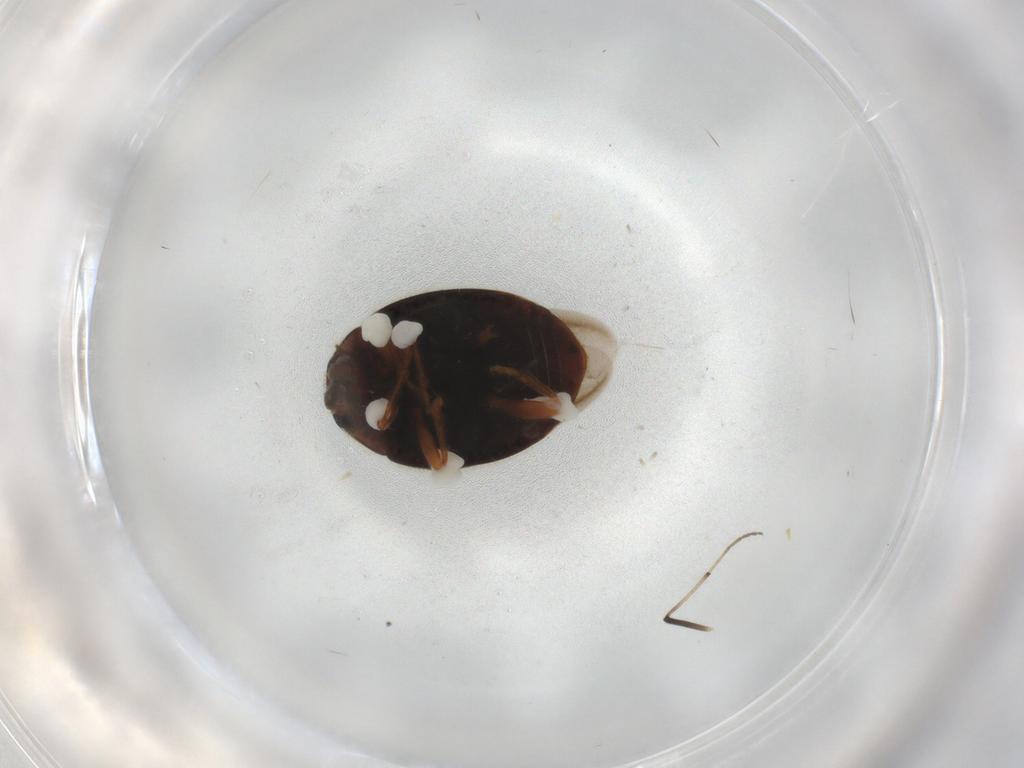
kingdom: Animalia
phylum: Arthropoda
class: Insecta
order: Coleoptera
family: Coccinellidae
